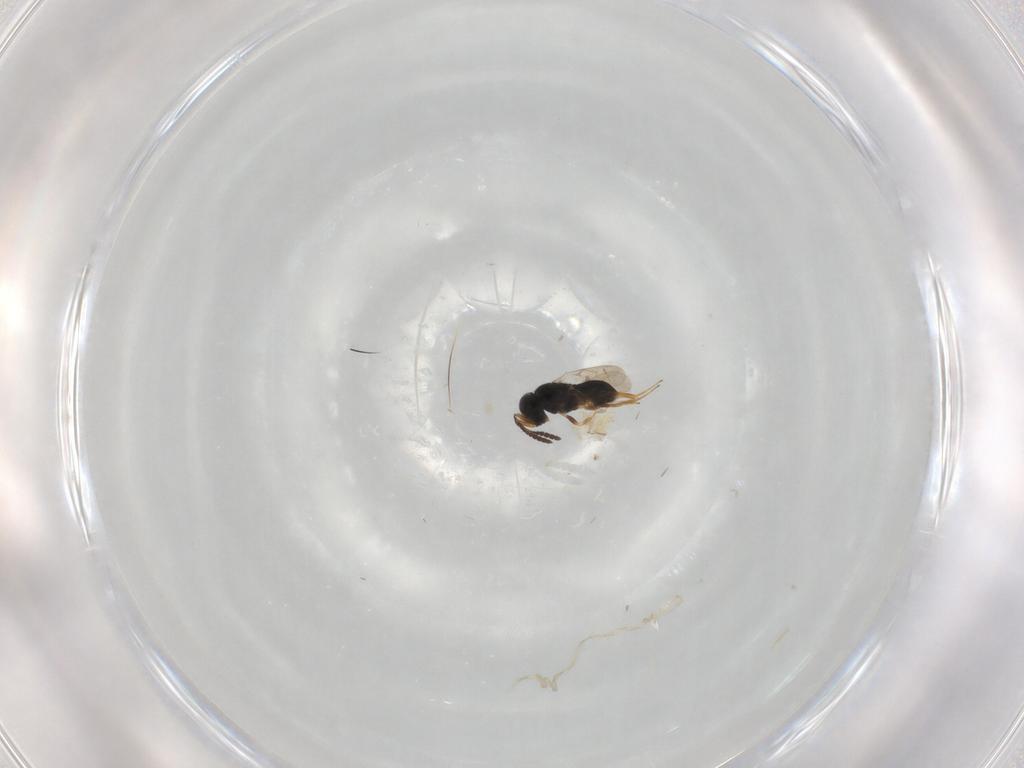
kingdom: Animalia
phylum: Arthropoda
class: Insecta
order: Hymenoptera
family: Scelionidae
